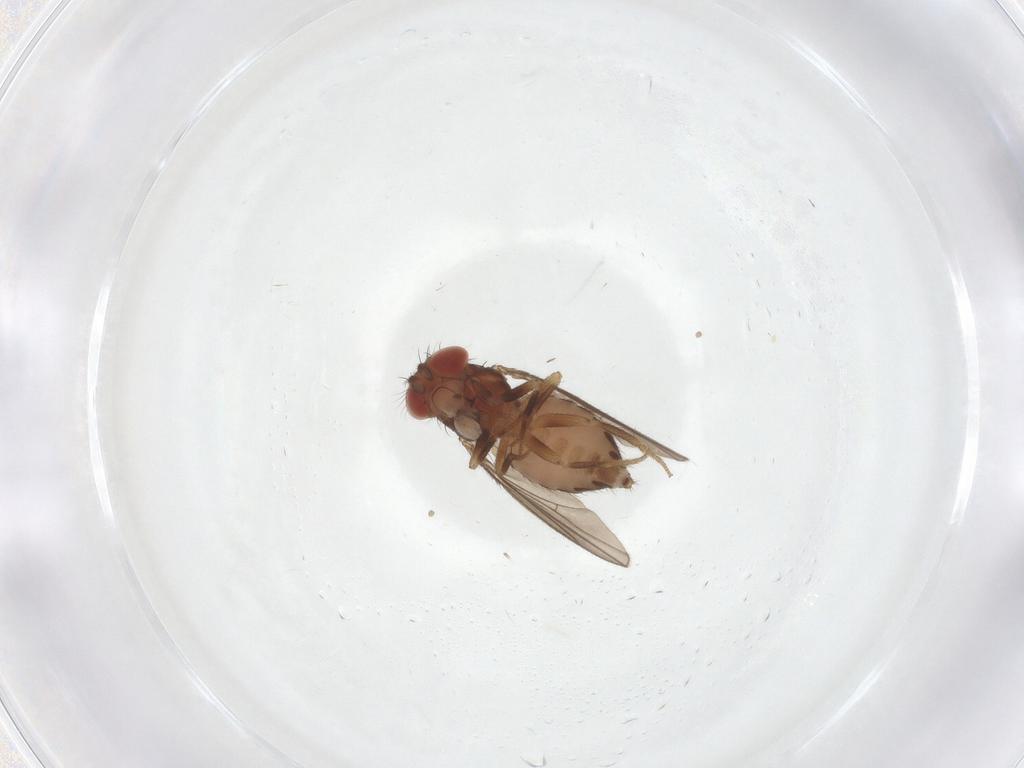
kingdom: Animalia
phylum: Arthropoda
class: Insecta
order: Diptera
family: Drosophilidae
